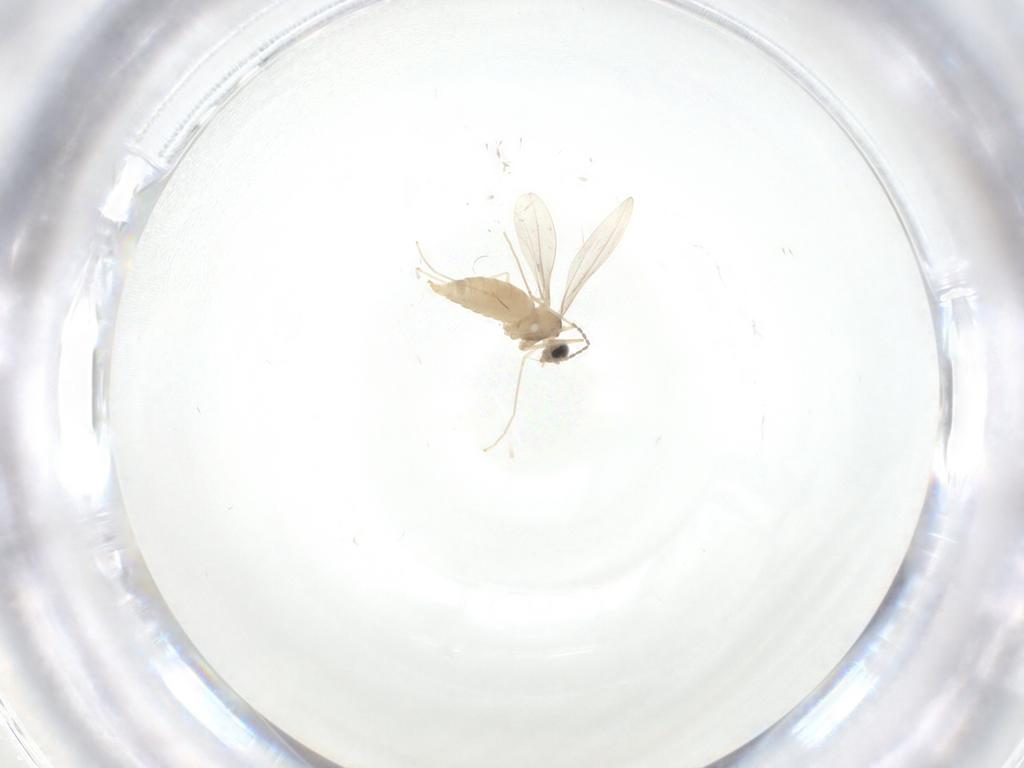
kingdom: Animalia
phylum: Arthropoda
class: Insecta
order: Diptera
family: Cecidomyiidae
